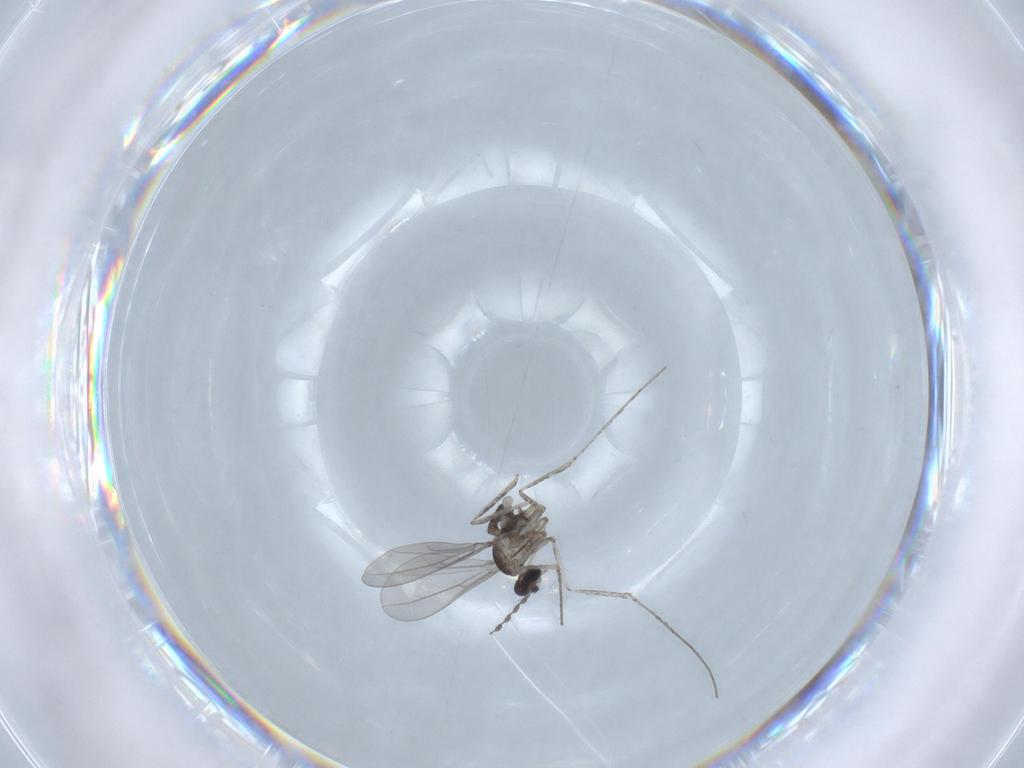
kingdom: Animalia
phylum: Arthropoda
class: Insecta
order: Diptera
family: Cecidomyiidae
